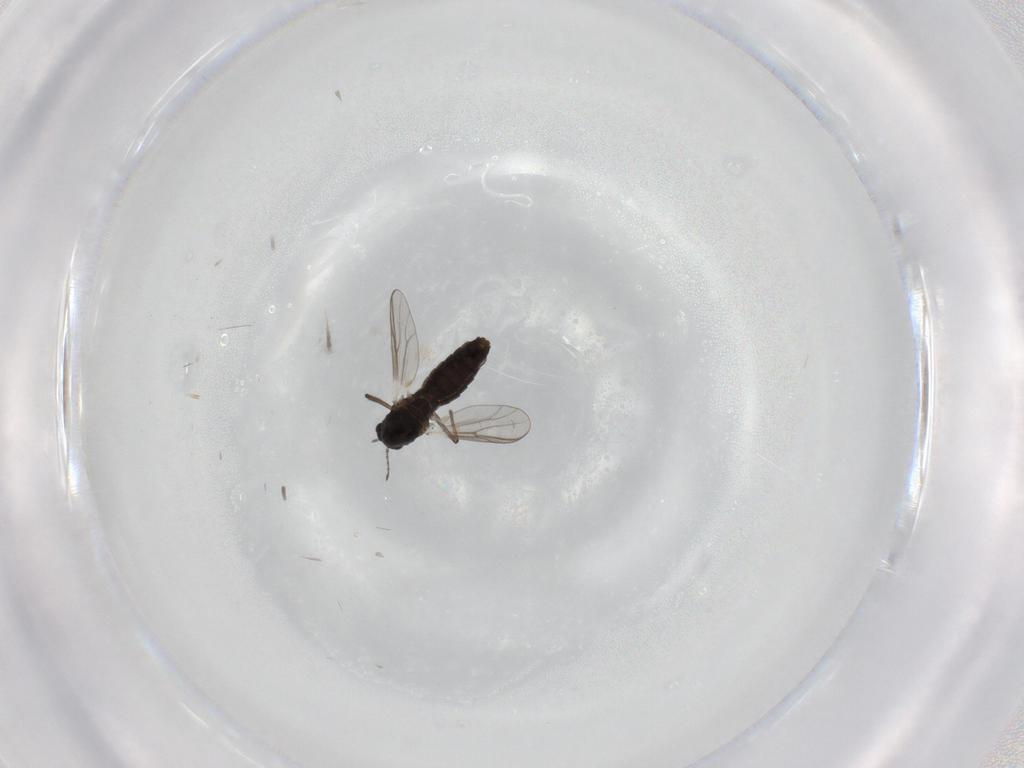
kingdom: Animalia
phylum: Arthropoda
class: Insecta
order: Diptera
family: Chironomidae
